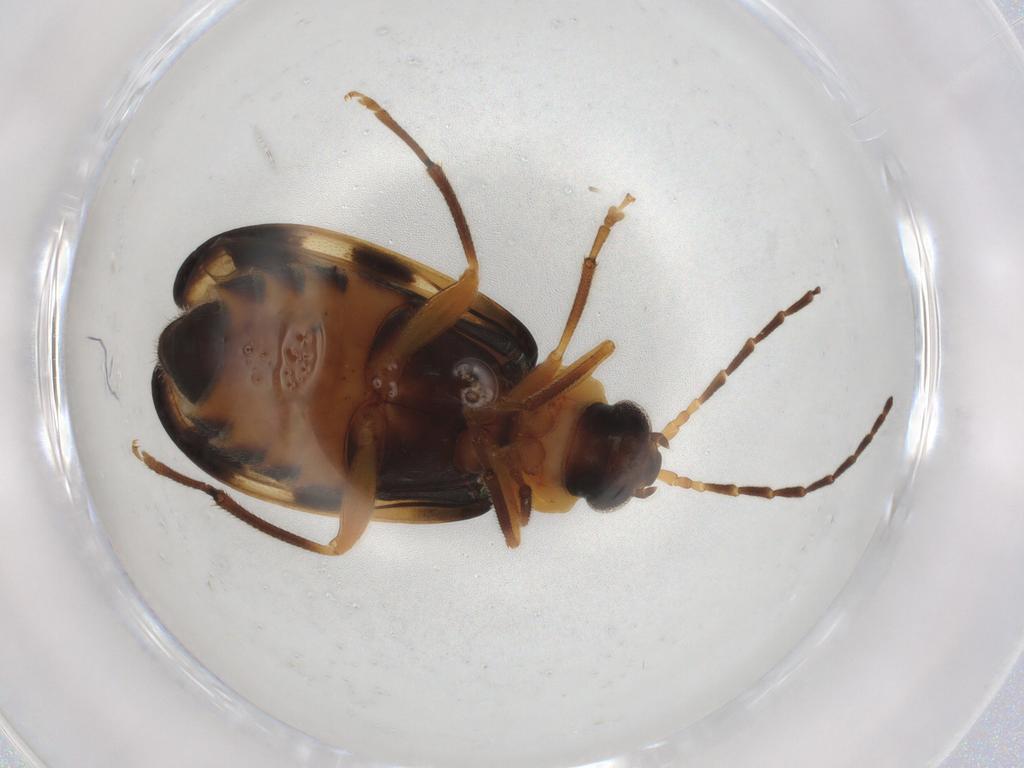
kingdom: Animalia
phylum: Arthropoda
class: Insecta
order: Coleoptera
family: Chrysomelidae
